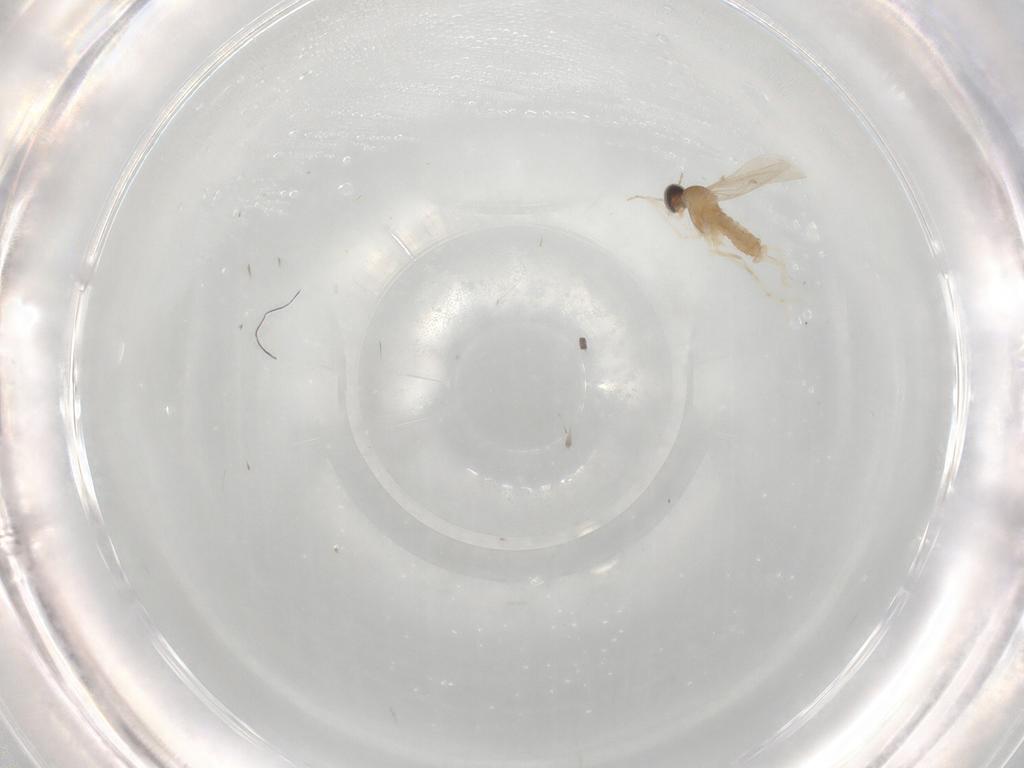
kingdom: Animalia
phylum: Arthropoda
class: Insecta
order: Diptera
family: Cecidomyiidae
